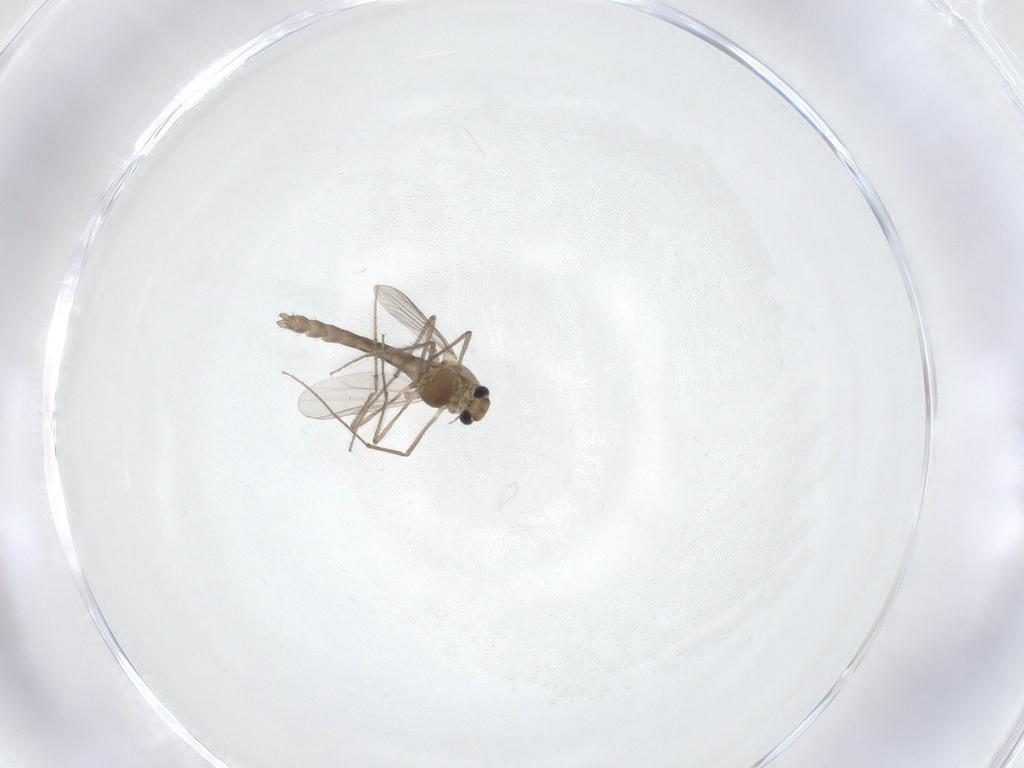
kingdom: Animalia
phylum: Arthropoda
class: Insecta
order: Diptera
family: Chironomidae
